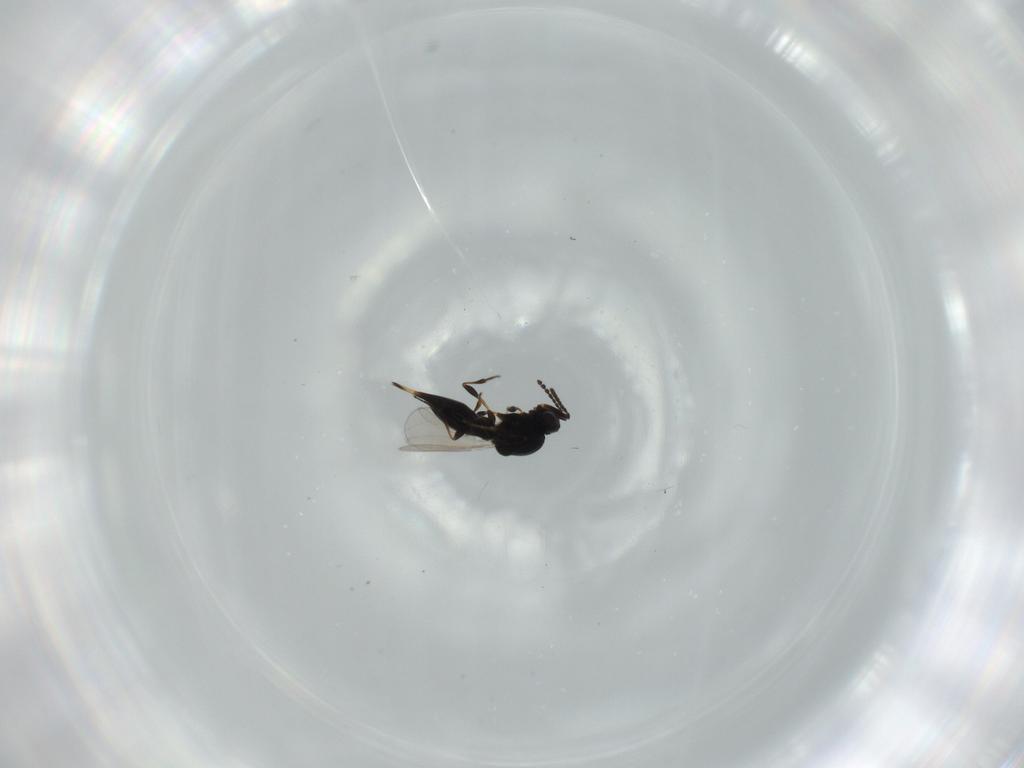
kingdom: Animalia
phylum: Arthropoda
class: Insecta
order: Hymenoptera
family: Platygastridae
